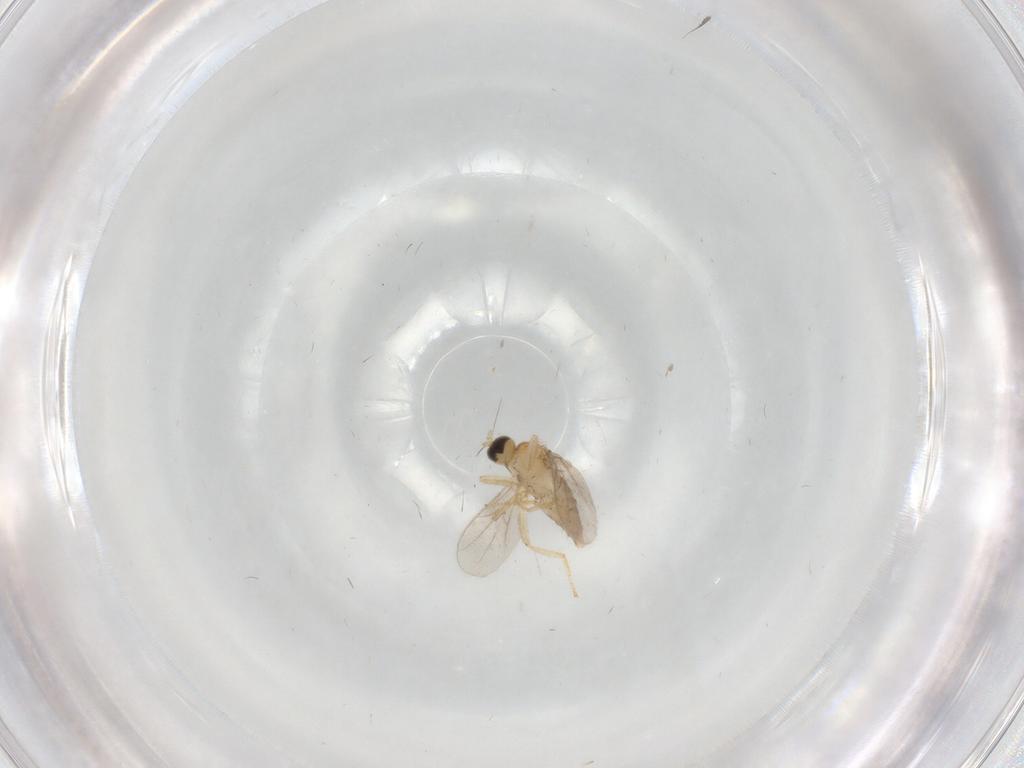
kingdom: Animalia
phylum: Arthropoda
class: Insecta
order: Diptera
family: Hybotidae
